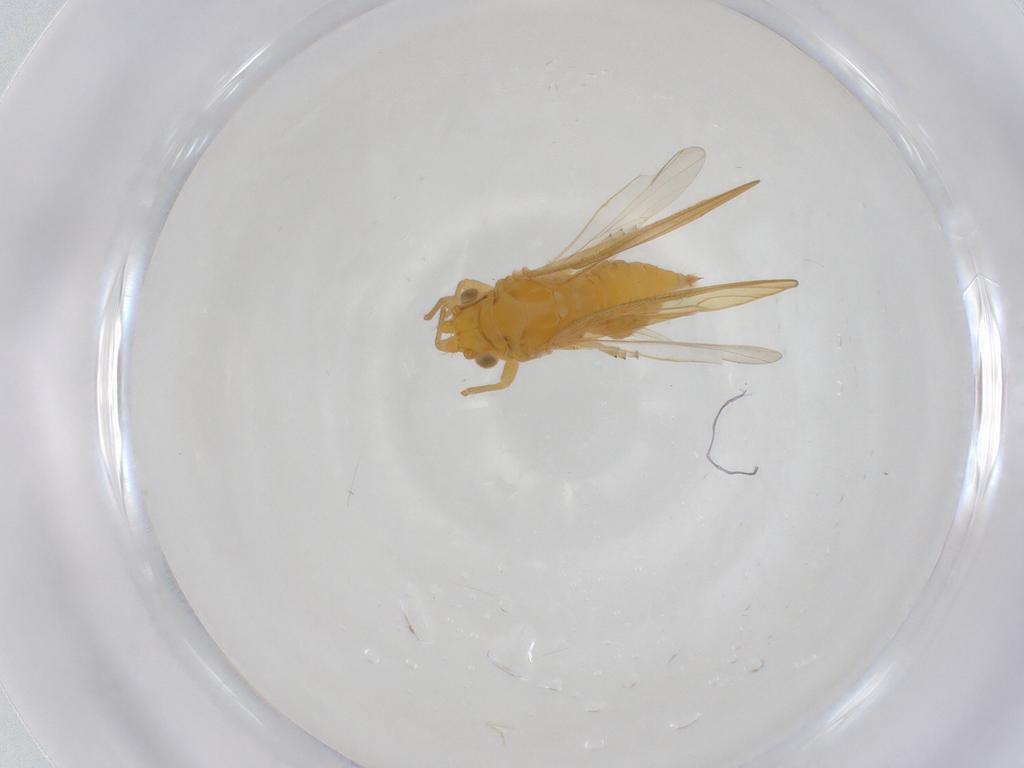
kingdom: Animalia
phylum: Arthropoda
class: Insecta
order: Hemiptera
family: Psyllidae
